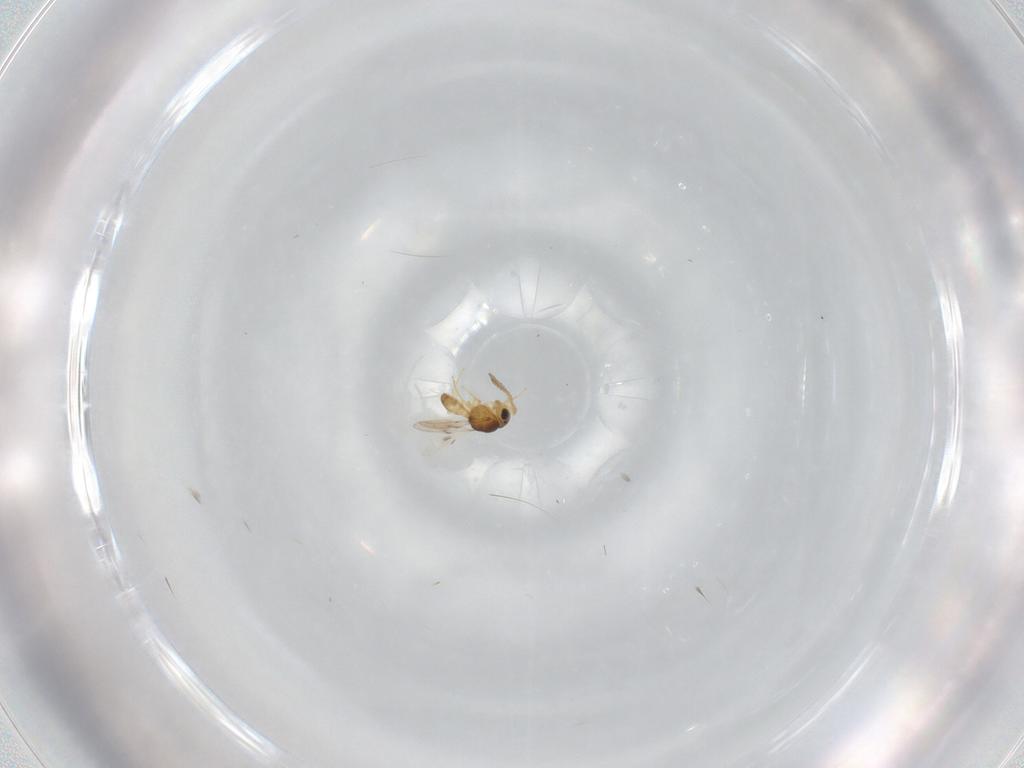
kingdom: Animalia
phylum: Arthropoda
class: Insecta
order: Hymenoptera
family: Scelionidae
